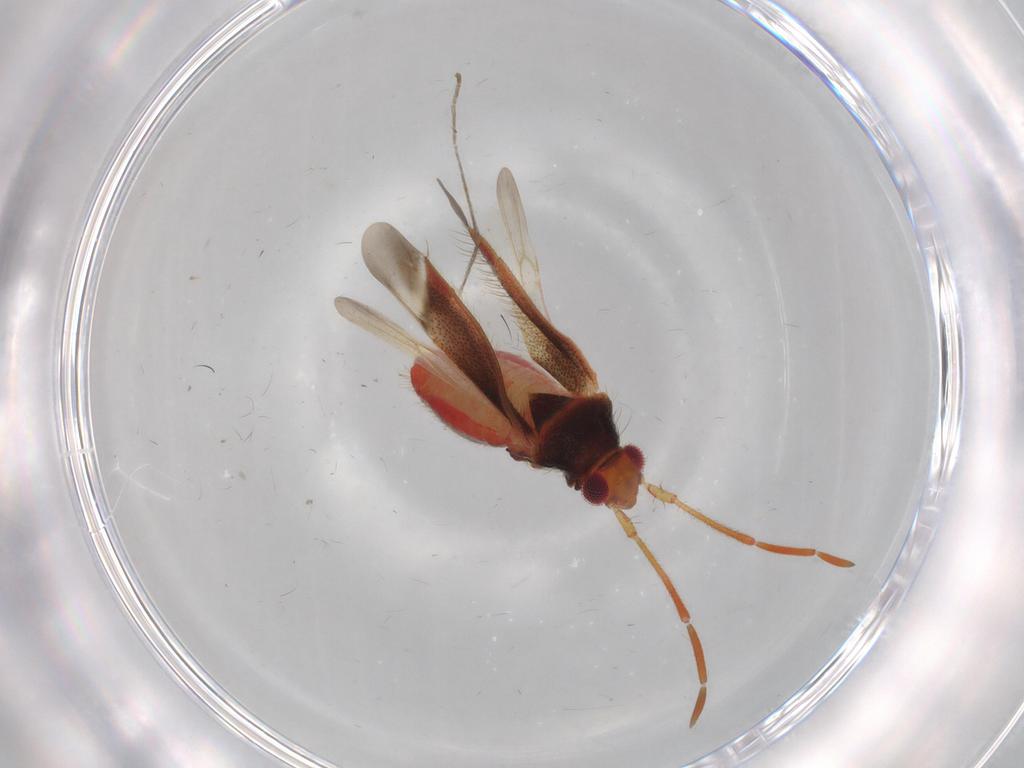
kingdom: Animalia
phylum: Arthropoda
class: Insecta
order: Hemiptera
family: Miridae
